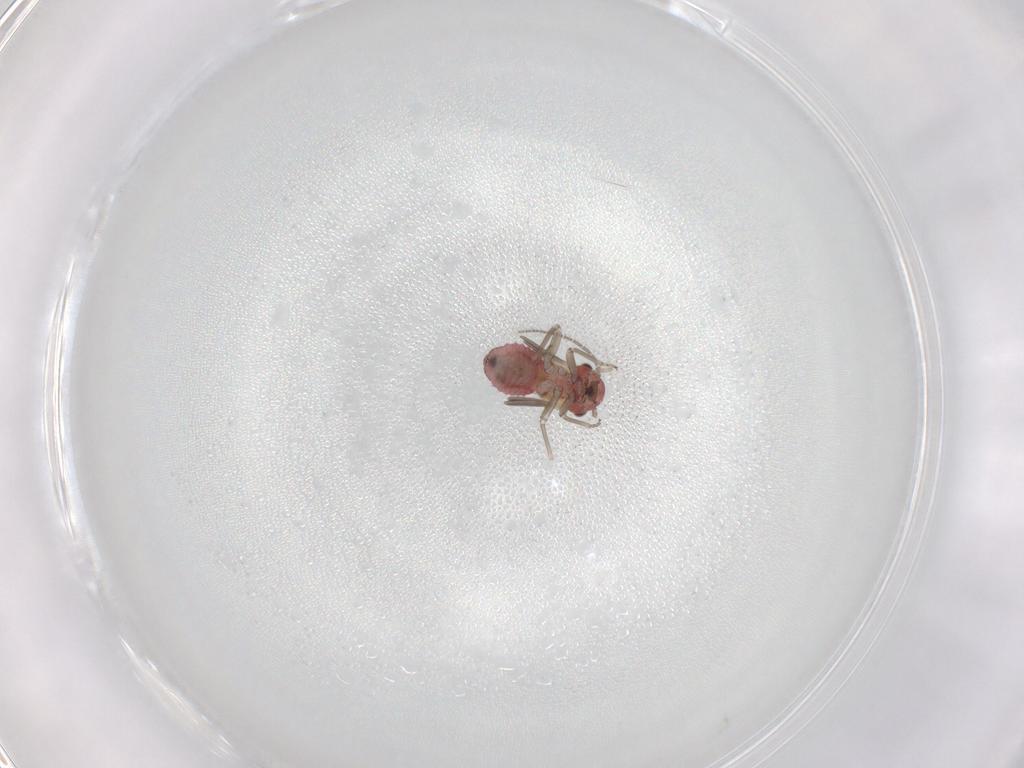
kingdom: Animalia
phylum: Arthropoda
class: Insecta
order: Psocodea
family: Lachesillidae
